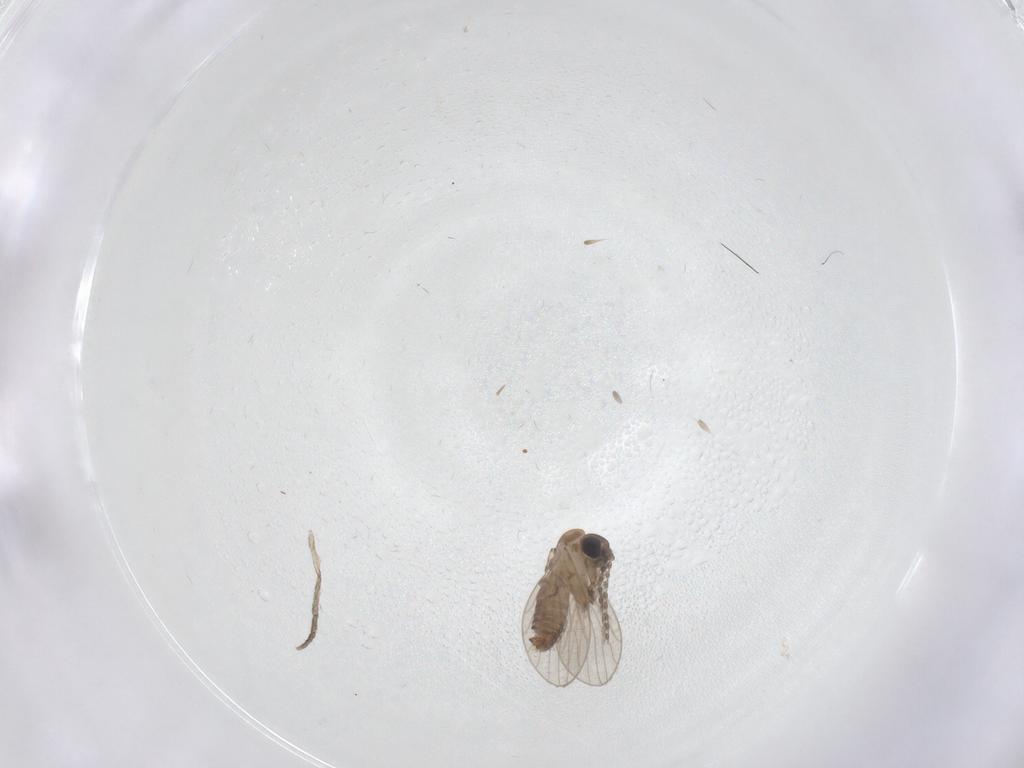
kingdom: Animalia
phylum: Arthropoda
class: Insecta
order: Diptera
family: Psychodidae
